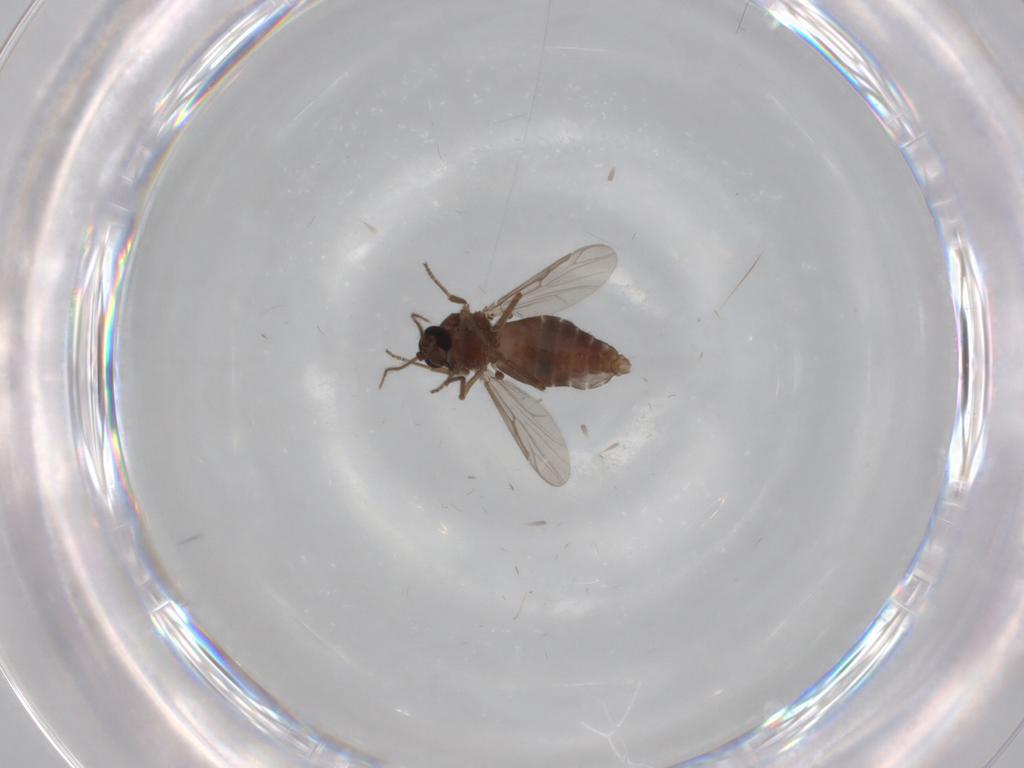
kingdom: Animalia
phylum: Arthropoda
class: Insecta
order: Diptera
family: Ceratopogonidae
